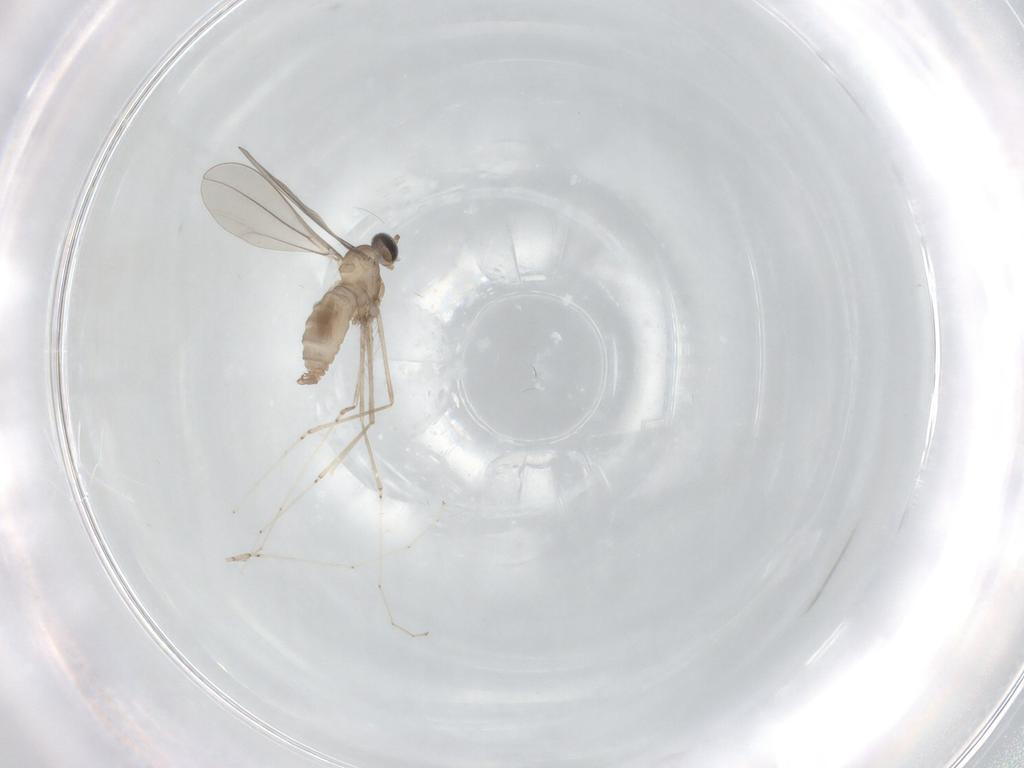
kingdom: Animalia
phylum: Arthropoda
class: Insecta
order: Diptera
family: Cecidomyiidae
